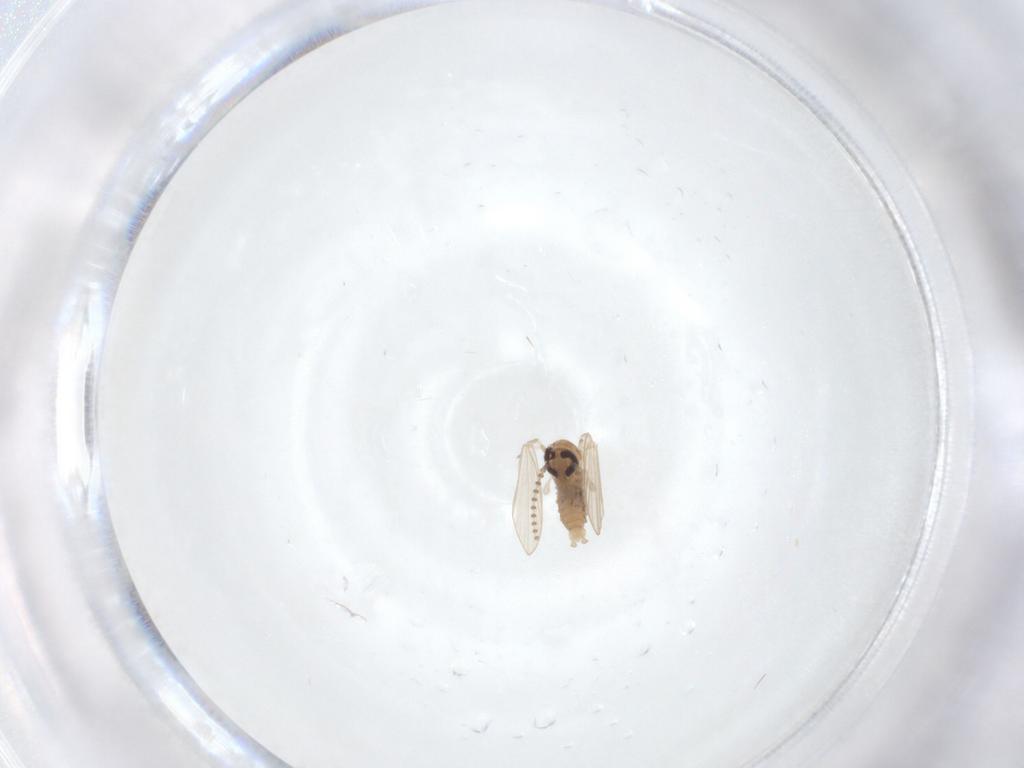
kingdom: Animalia
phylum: Arthropoda
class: Insecta
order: Diptera
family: Psychodidae
